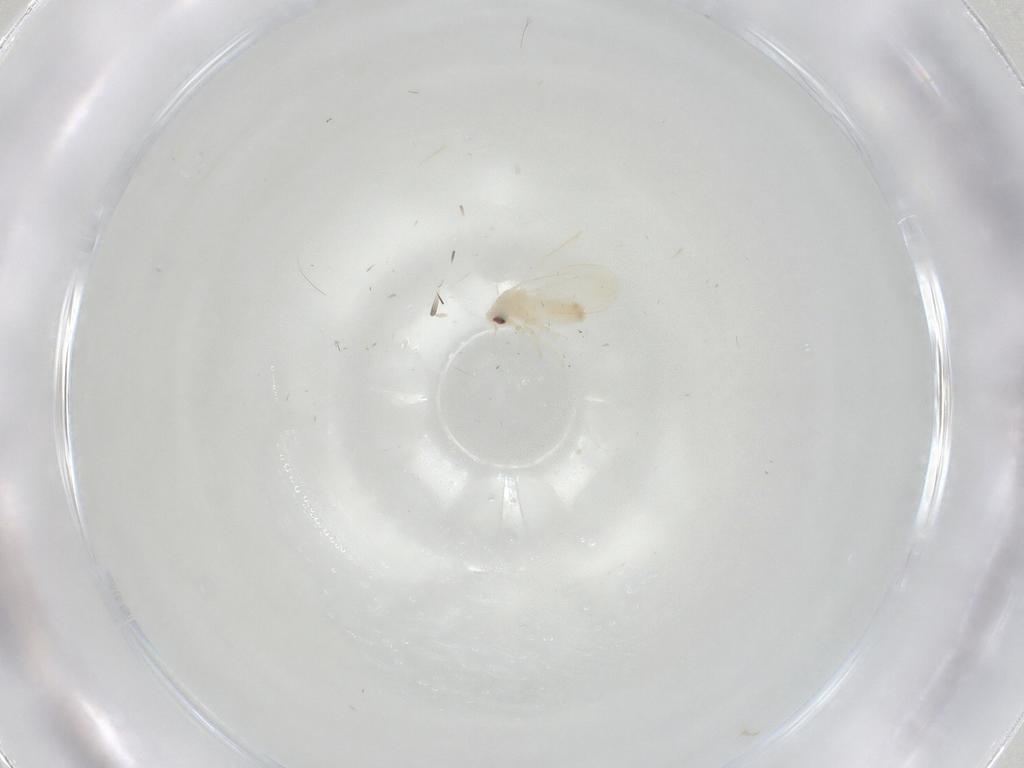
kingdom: Animalia
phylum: Arthropoda
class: Insecta
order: Hemiptera
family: Aleyrodidae
